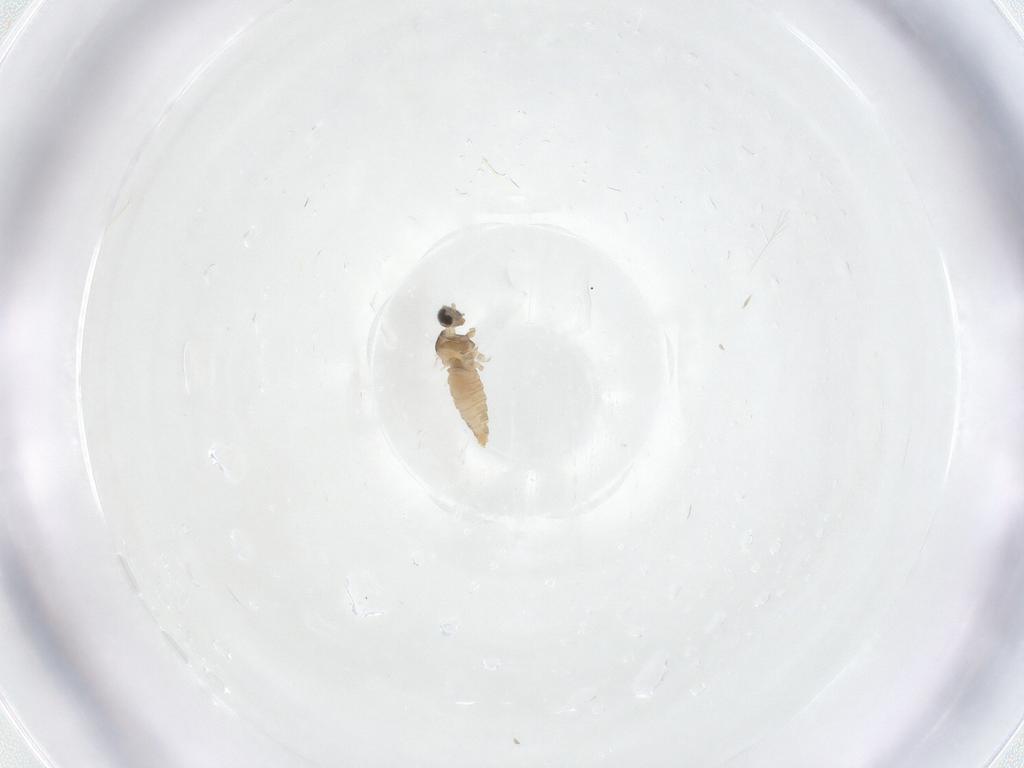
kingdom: Animalia
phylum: Arthropoda
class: Insecta
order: Diptera
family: Cecidomyiidae
